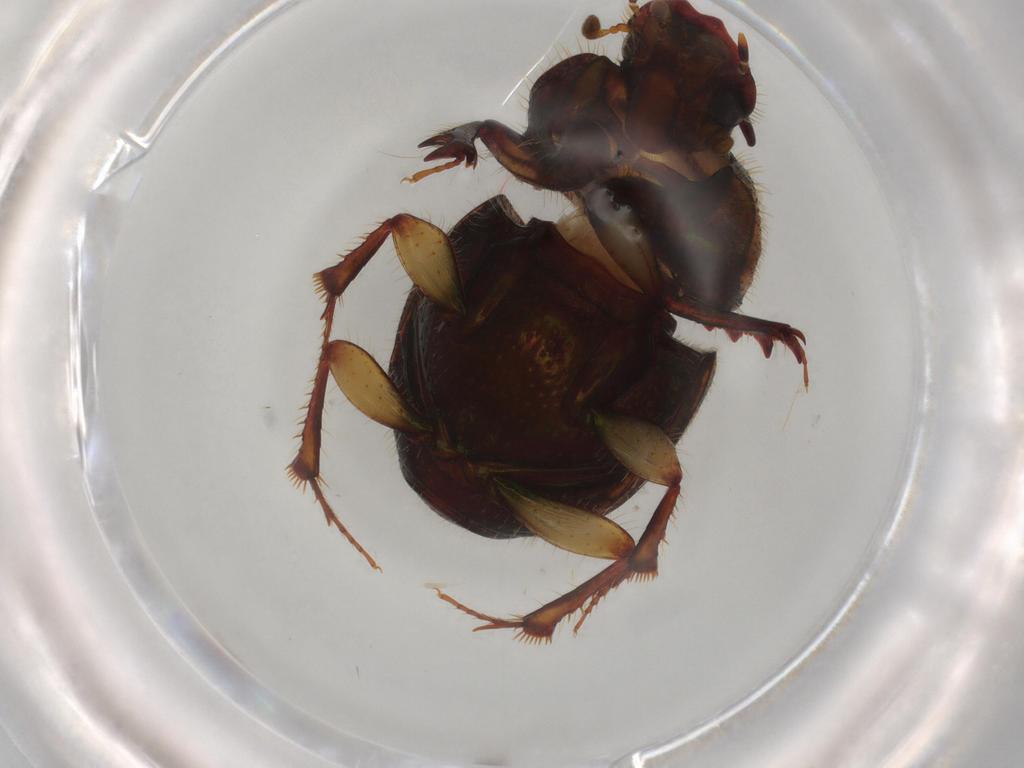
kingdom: Animalia
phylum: Arthropoda
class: Insecta
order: Coleoptera
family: Scarabaeidae
